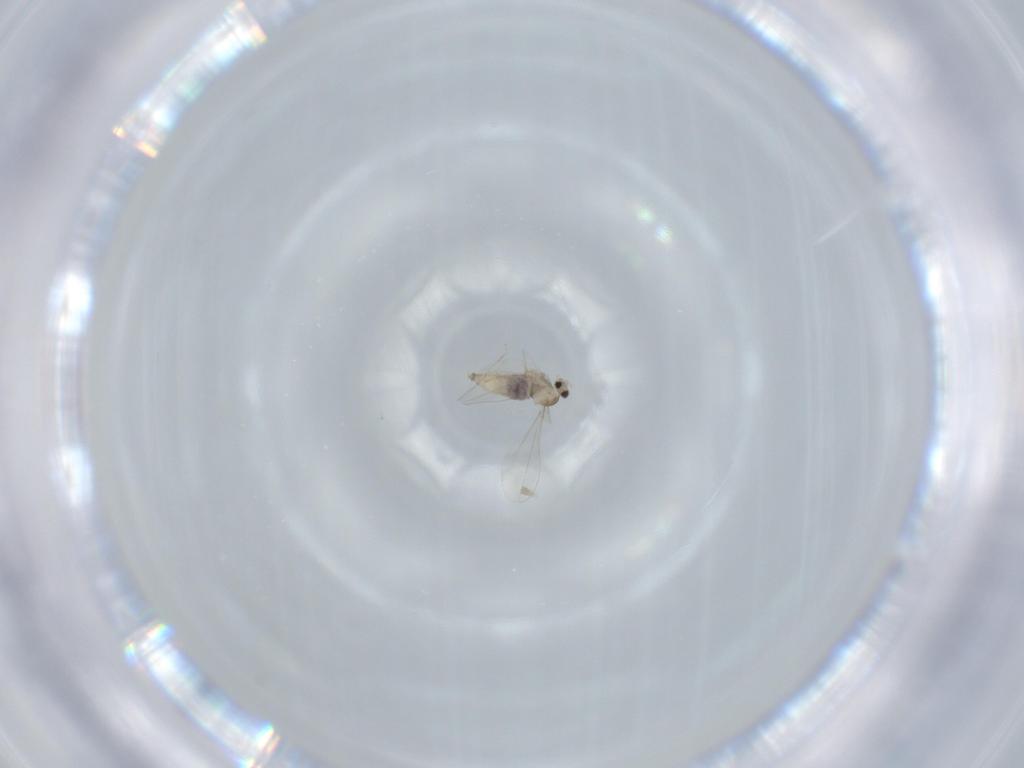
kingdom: Animalia
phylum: Arthropoda
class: Insecta
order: Diptera
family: Cecidomyiidae
